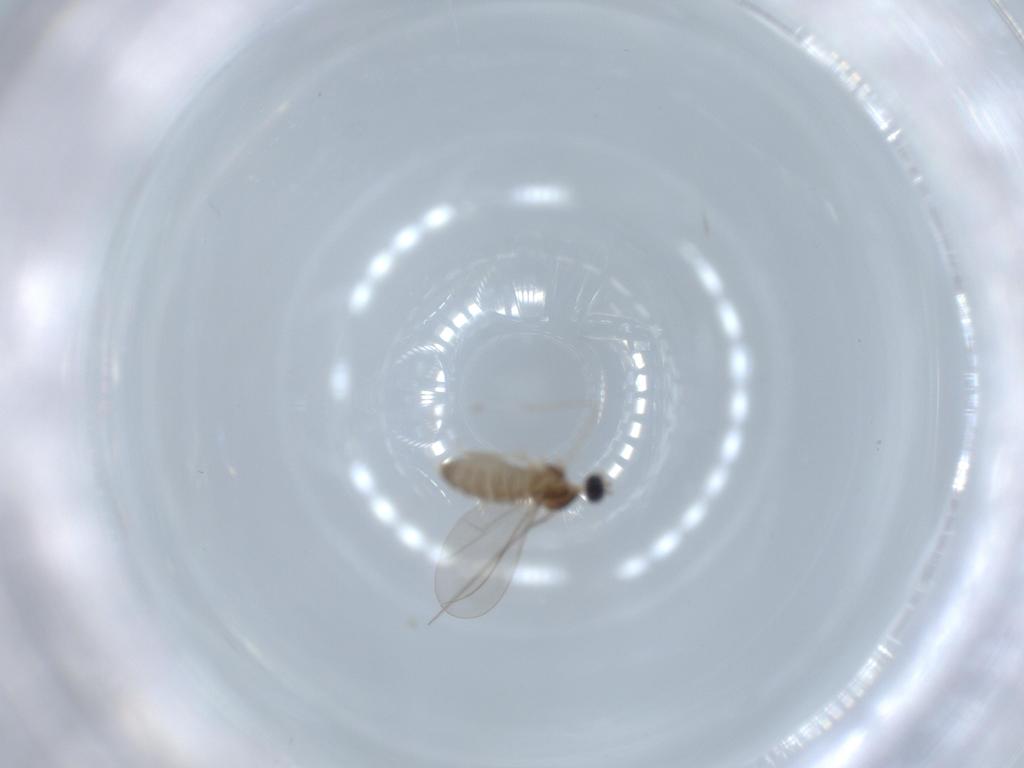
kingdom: Animalia
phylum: Arthropoda
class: Insecta
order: Diptera
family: Cecidomyiidae
